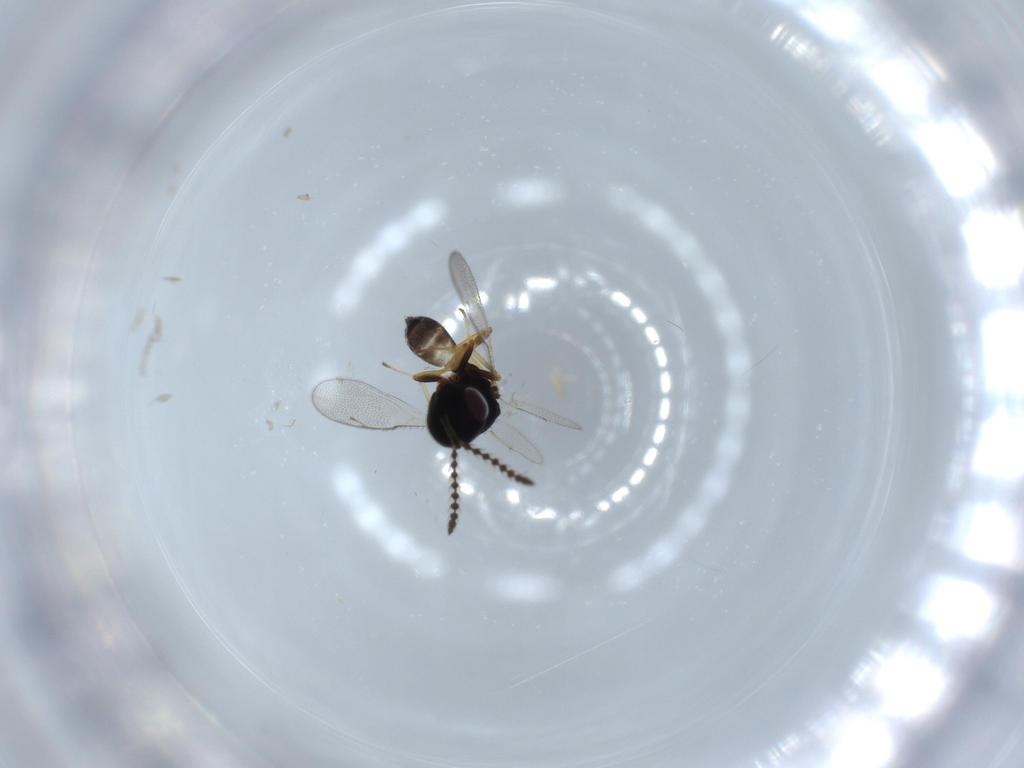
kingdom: Animalia
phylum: Arthropoda
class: Insecta
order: Hymenoptera
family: Pteromalidae
